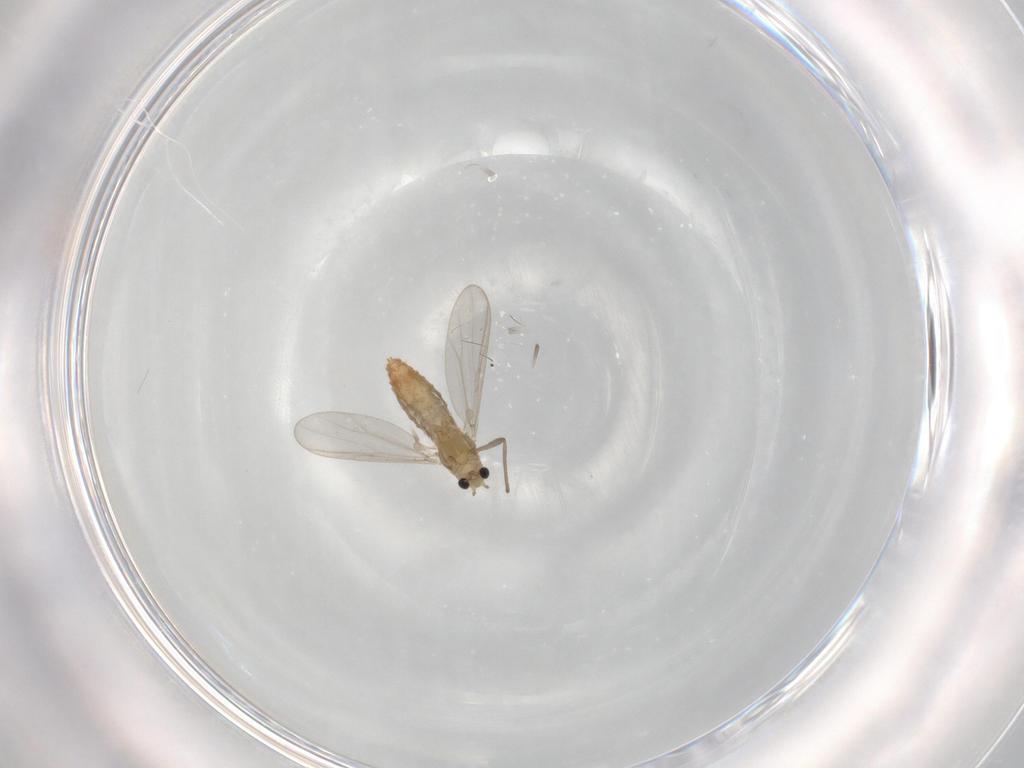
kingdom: Animalia
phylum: Arthropoda
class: Insecta
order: Diptera
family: Chironomidae
